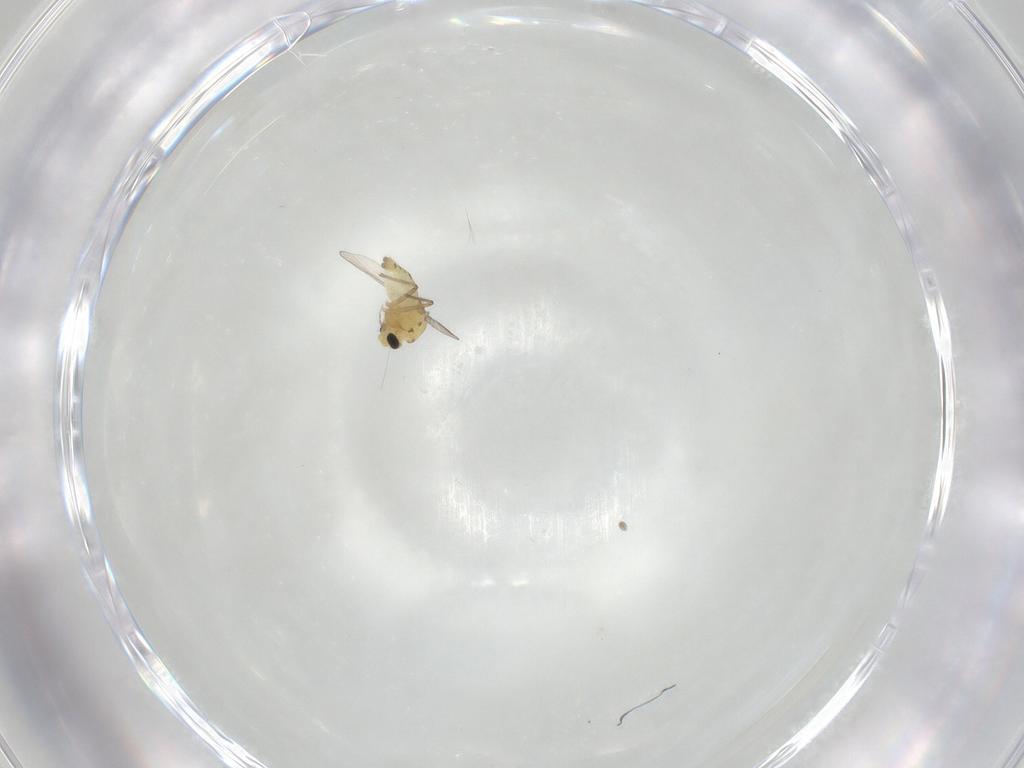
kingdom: Animalia
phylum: Arthropoda
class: Insecta
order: Diptera
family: Chironomidae
